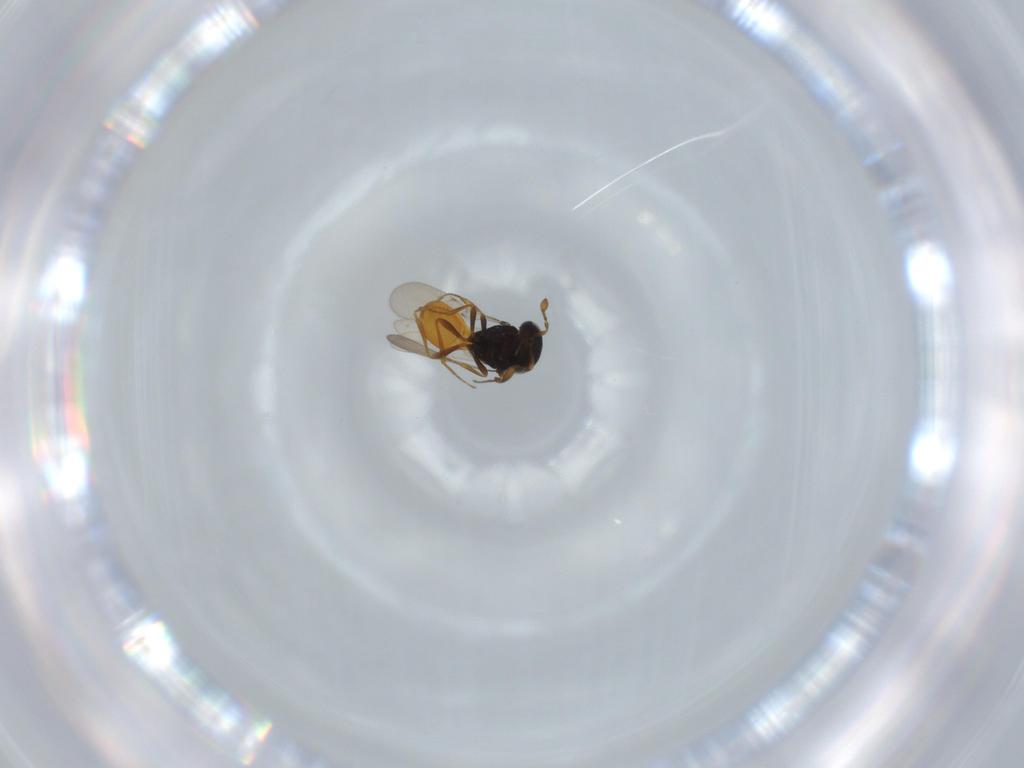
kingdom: Animalia
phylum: Arthropoda
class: Insecta
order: Hymenoptera
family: Scelionidae
